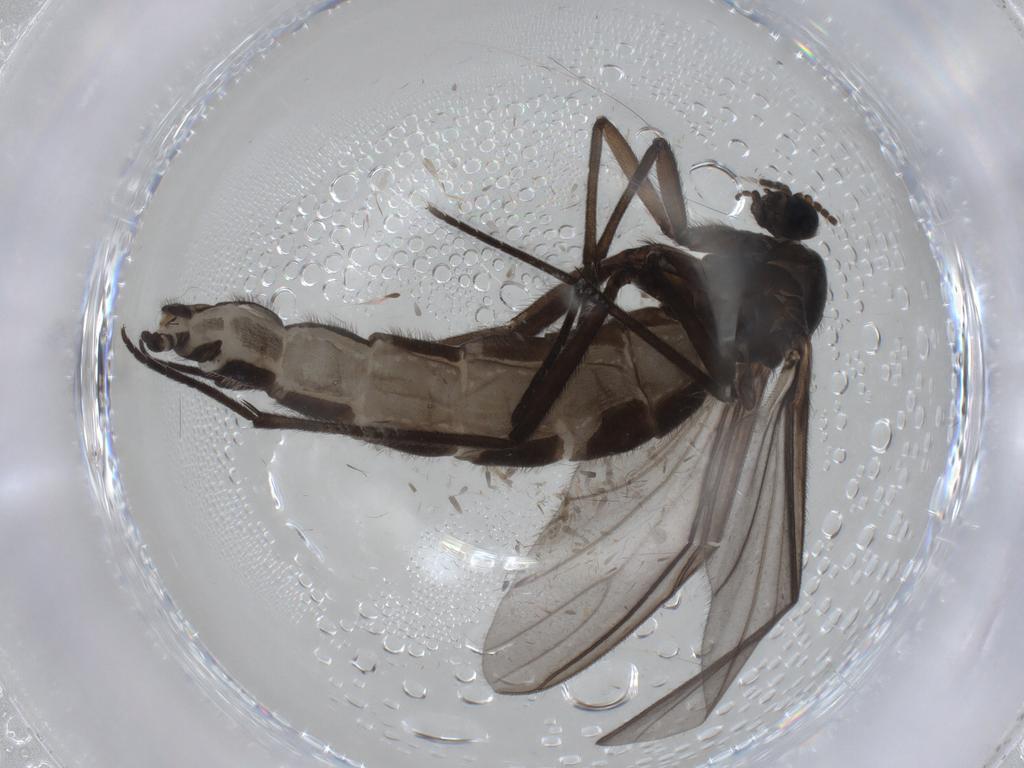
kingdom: Animalia
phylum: Arthropoda
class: Insecta
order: Diptera
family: Sciaridae
